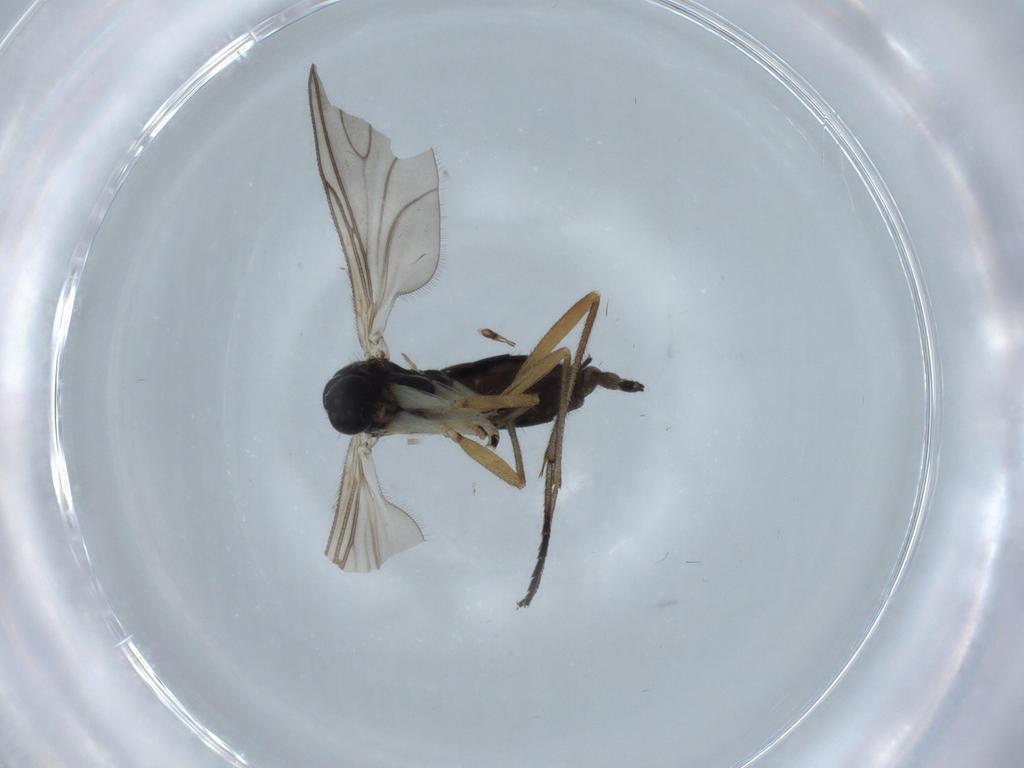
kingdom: Animalia
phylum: Arthropoda
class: Insecta
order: Diptera
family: Sciaridae
